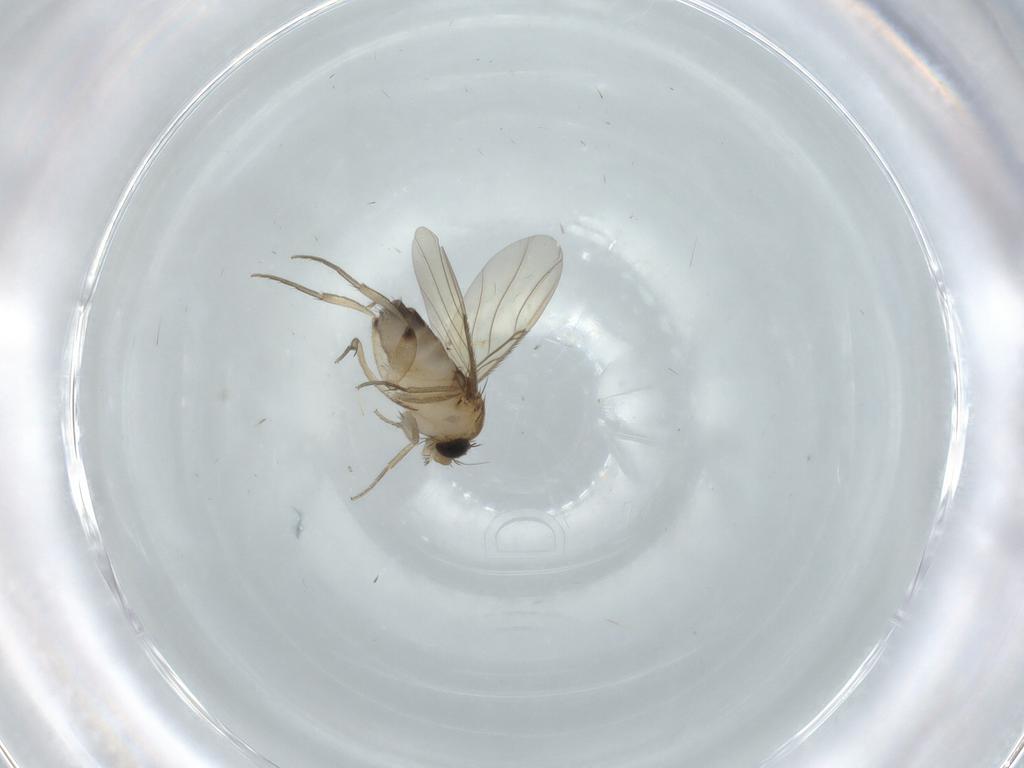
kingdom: Animalia
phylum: Arthropoda
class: Insecta
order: Diptera
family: Phoridae
